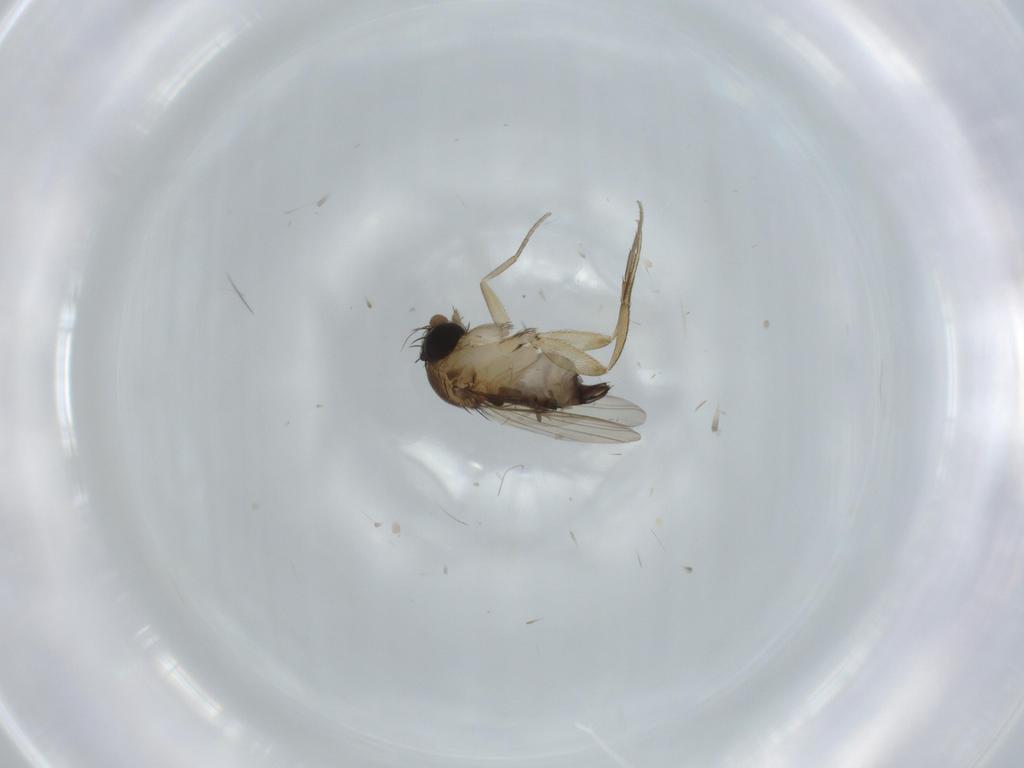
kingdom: Animalia
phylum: Arthropoda
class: Insecta
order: Diptera
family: Phoridae
